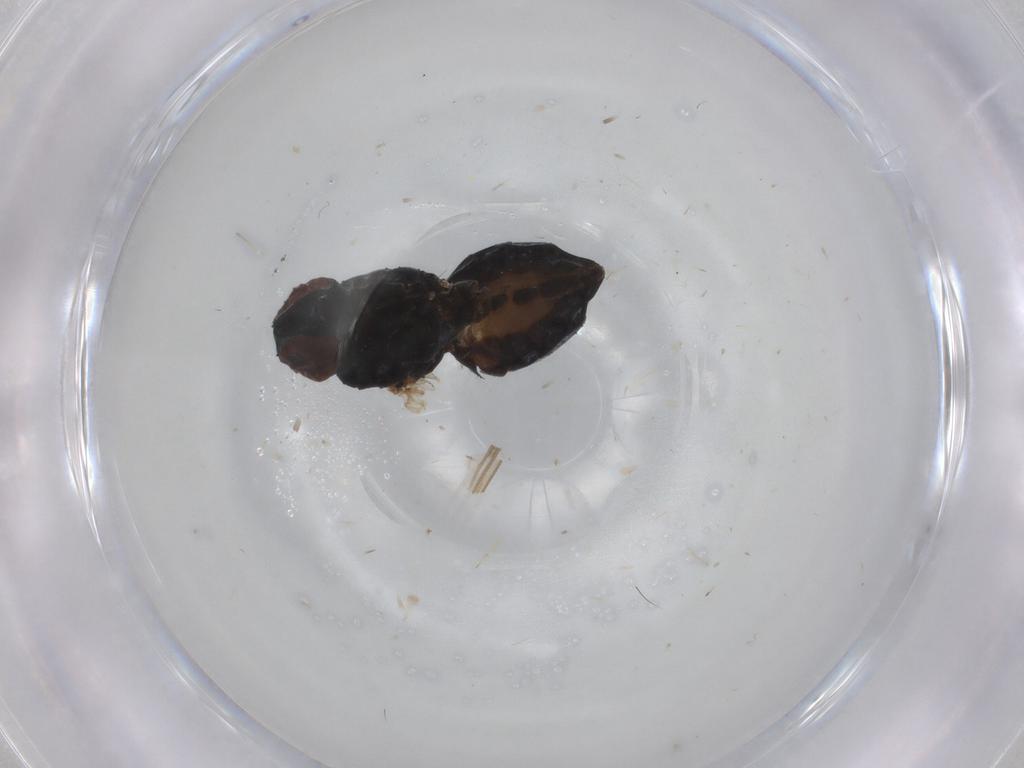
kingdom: Animalia
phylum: Arthropoda
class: Insecta
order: Diptera
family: Muscidae
